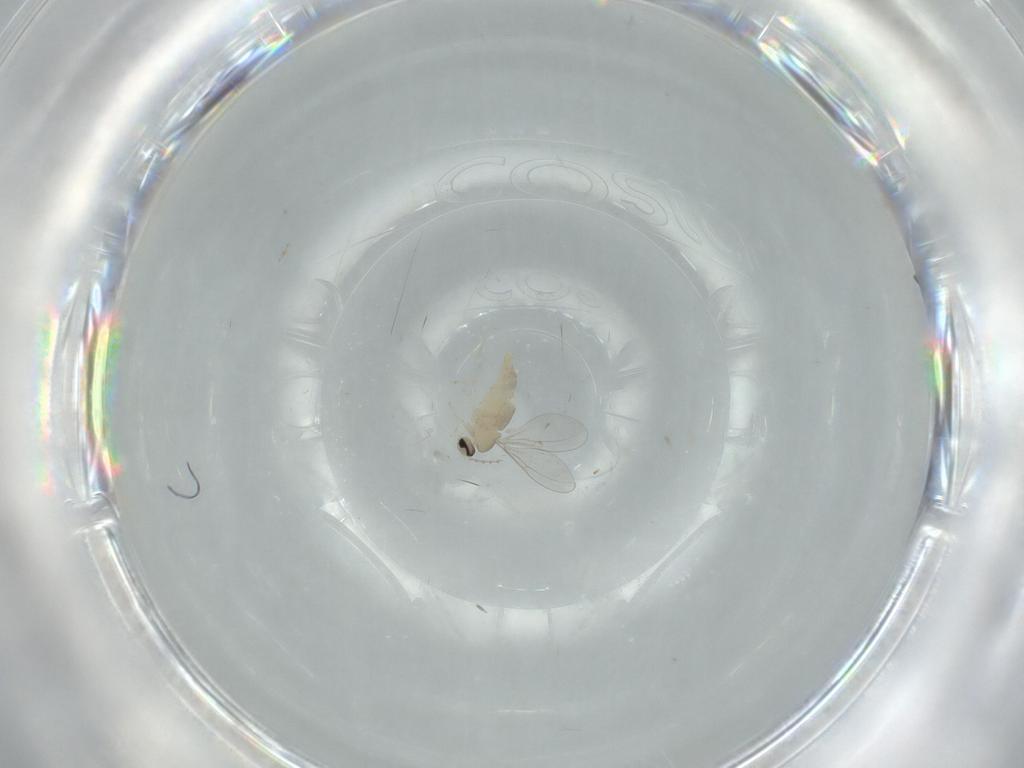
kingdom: Animalia
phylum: Arthropoda
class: Insecta
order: Diptera
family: Cecidomyiidae
